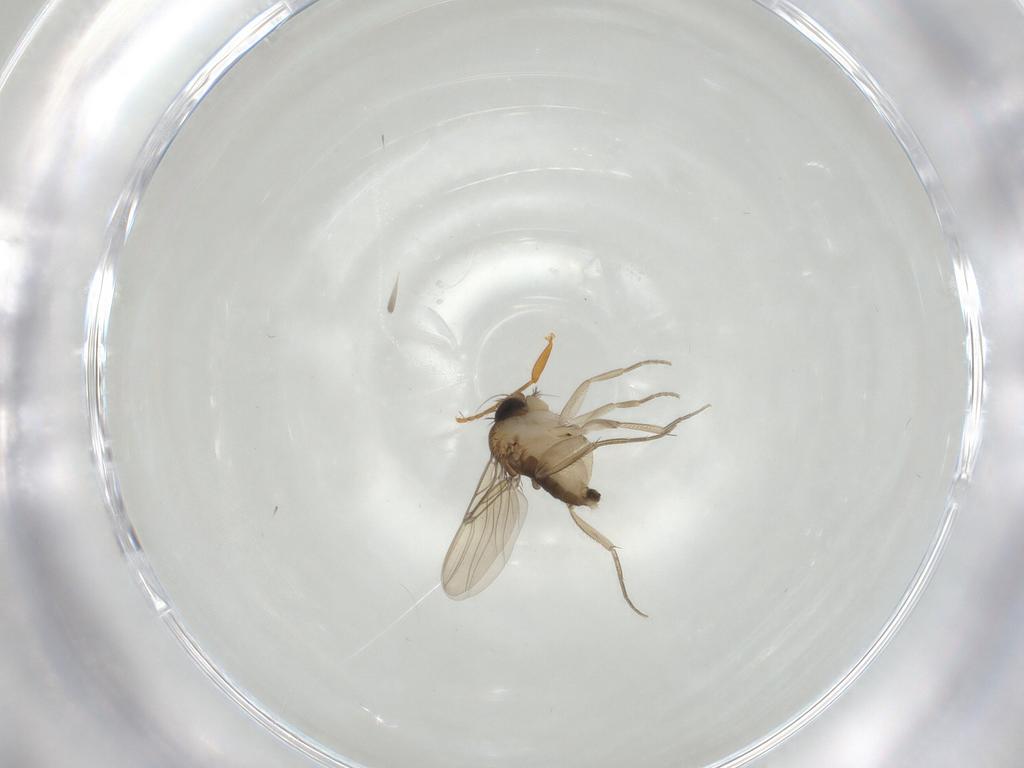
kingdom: Animalia
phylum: Arthropoda
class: Insecta
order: Diptera
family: Phoridae
